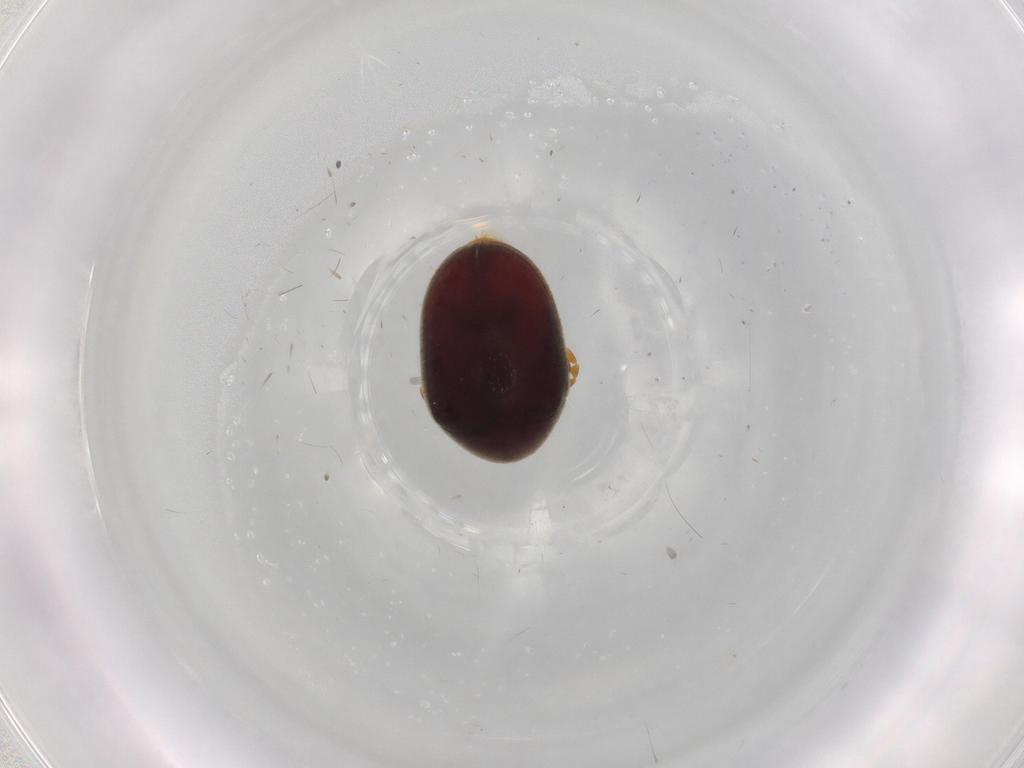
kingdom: Animalia
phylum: Arthropoda
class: Insecta
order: Coleoptera
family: Ptinidae
